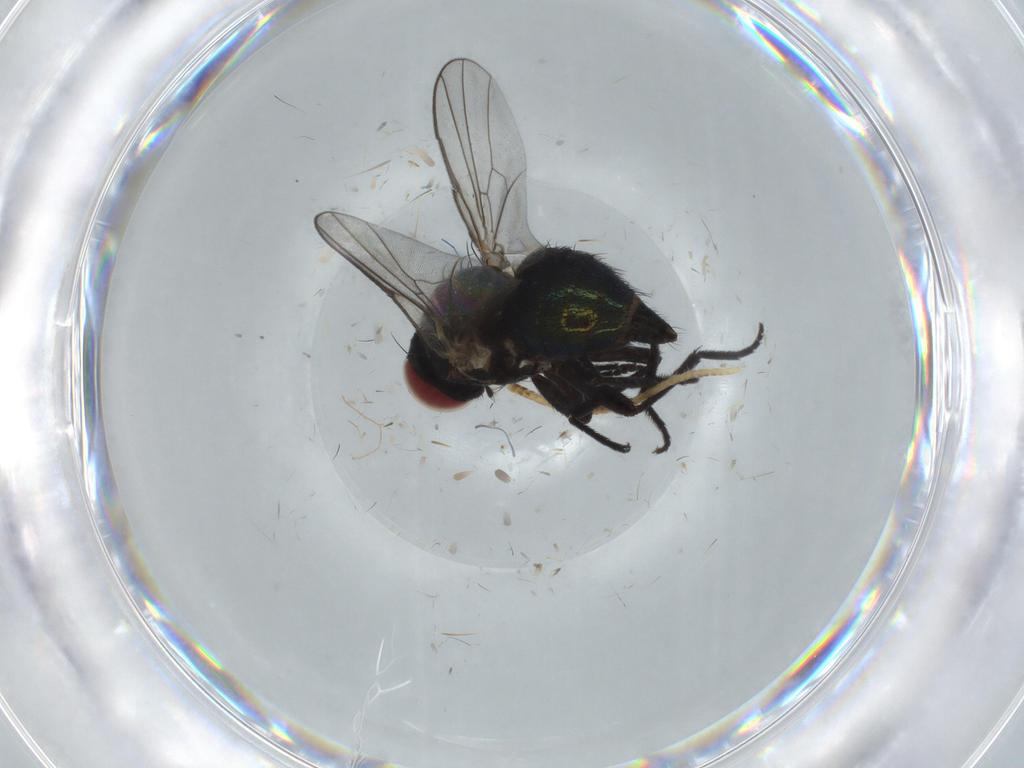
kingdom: Animalia
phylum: Arthropoda
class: Insecta
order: Diptera
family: Agromyzidae
